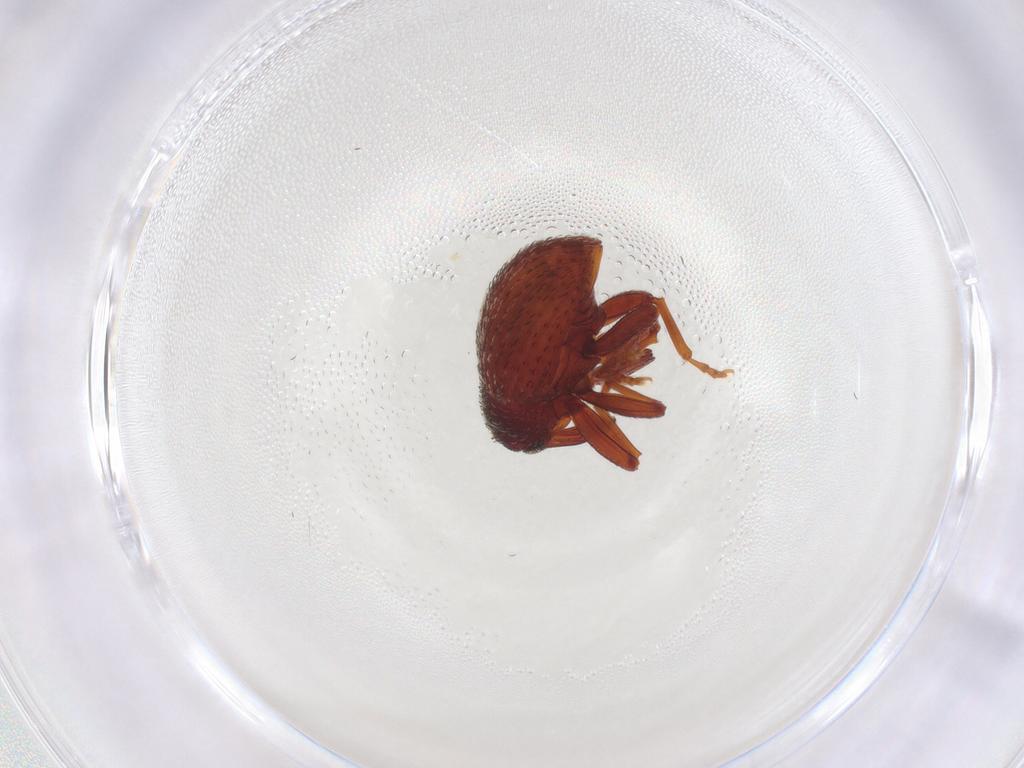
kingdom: Animalia
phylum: Arthropoda
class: Insecta
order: Coleoptera
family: Curculionidae
